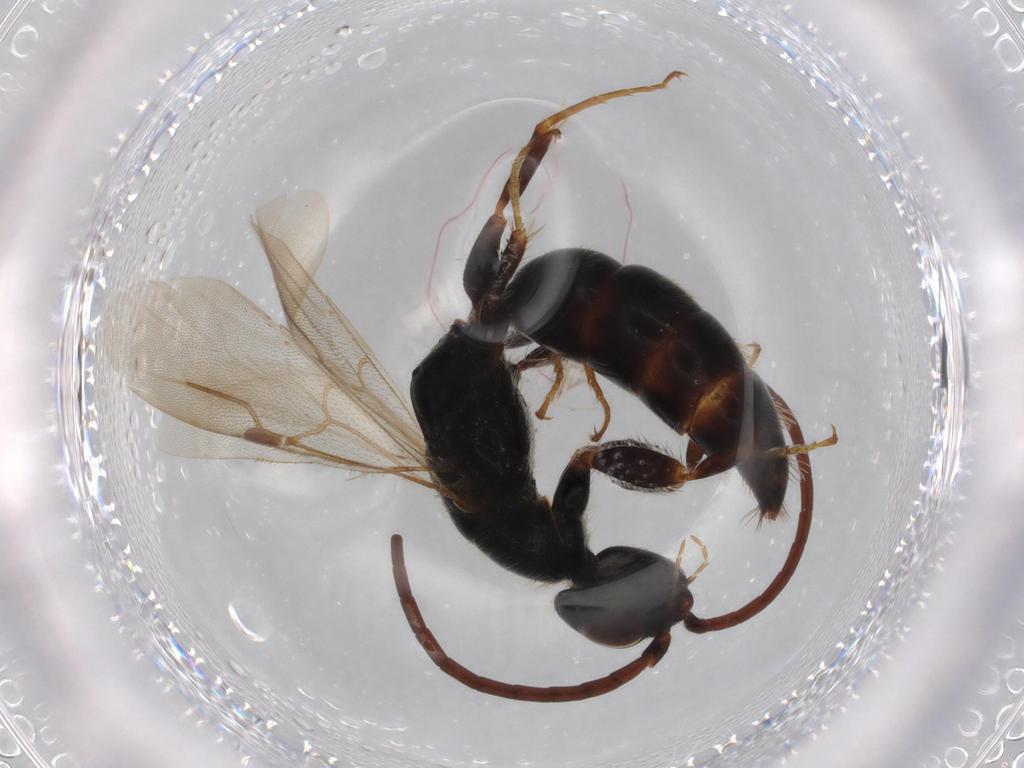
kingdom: Animalia
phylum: Arthropoda
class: Insecta
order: Hymenoptera
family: Bethylidae
